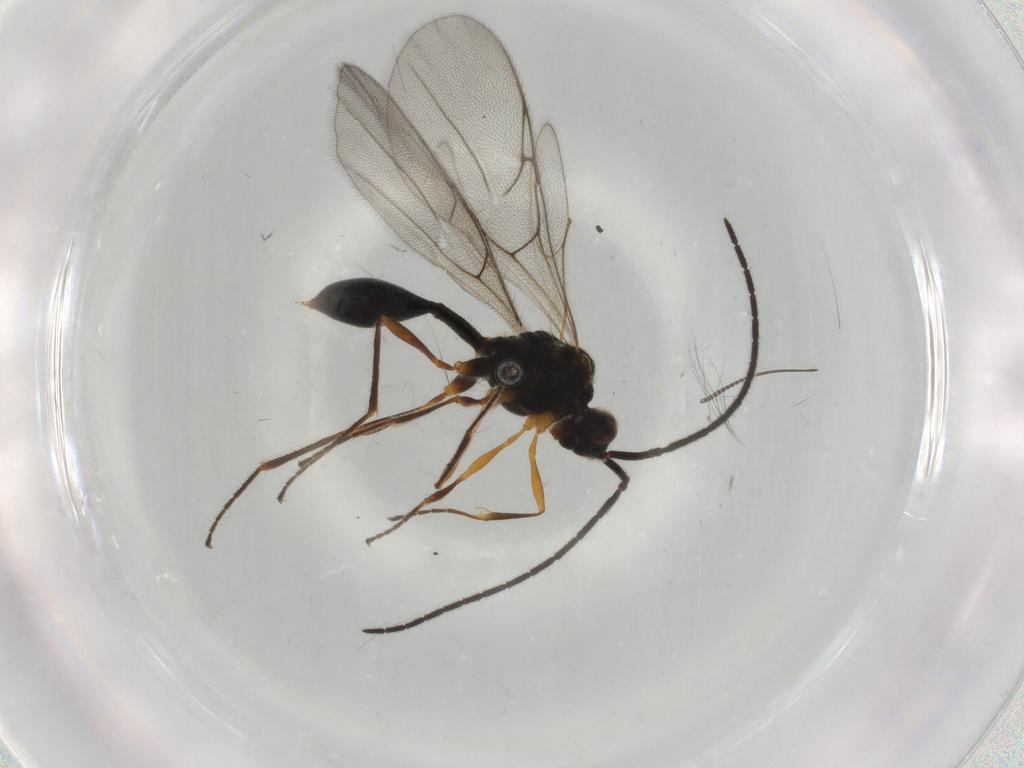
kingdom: Animalia
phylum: Arthropoda
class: Insecta
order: Hymenoptera
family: Diapriidae
